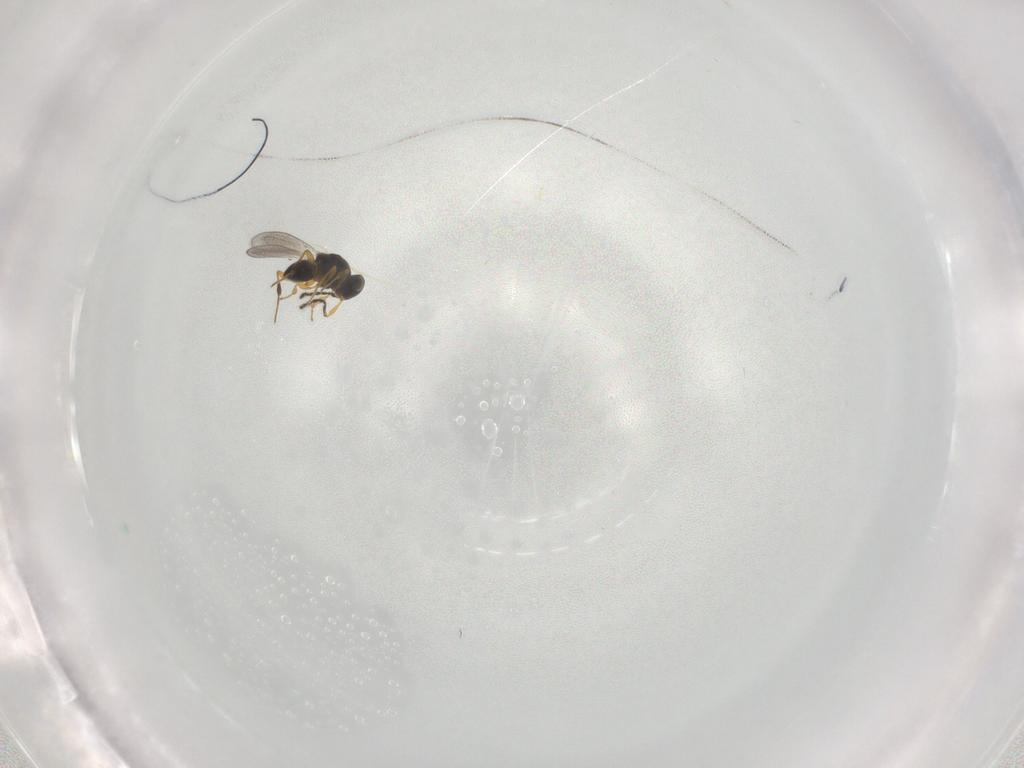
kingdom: Animalia
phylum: Arthropoda
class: Insecta
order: Hymenoptera
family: Platygastridae
